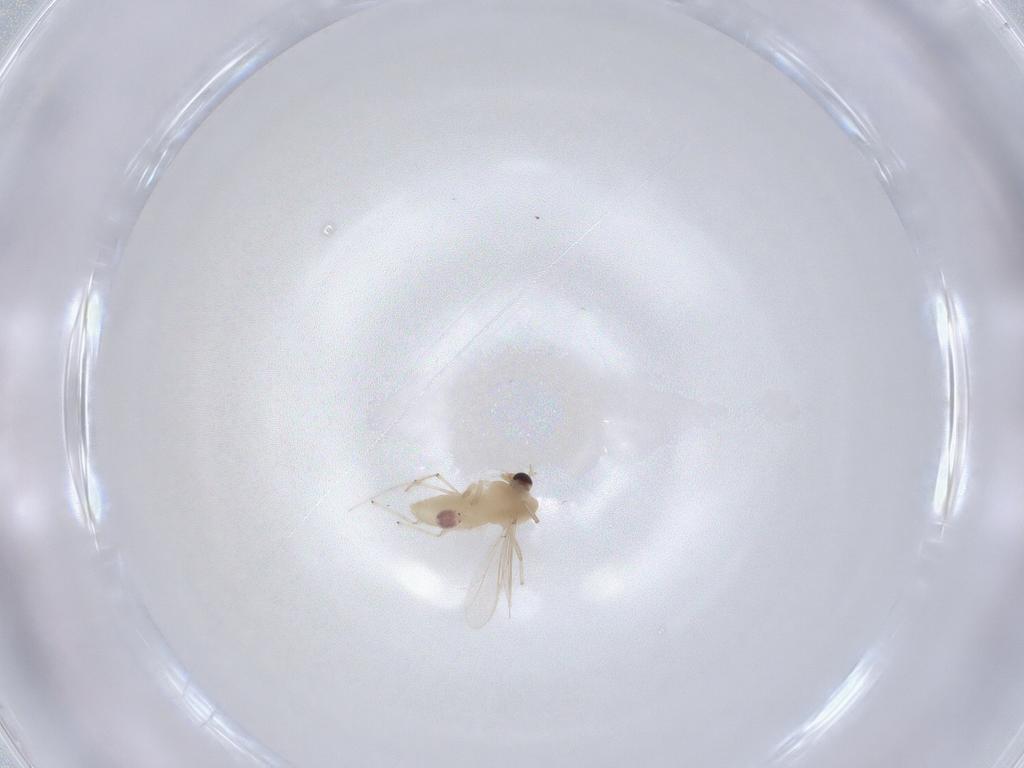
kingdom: Animalia
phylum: Arthropoda
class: Insecta
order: Diptera
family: Chironomidae
